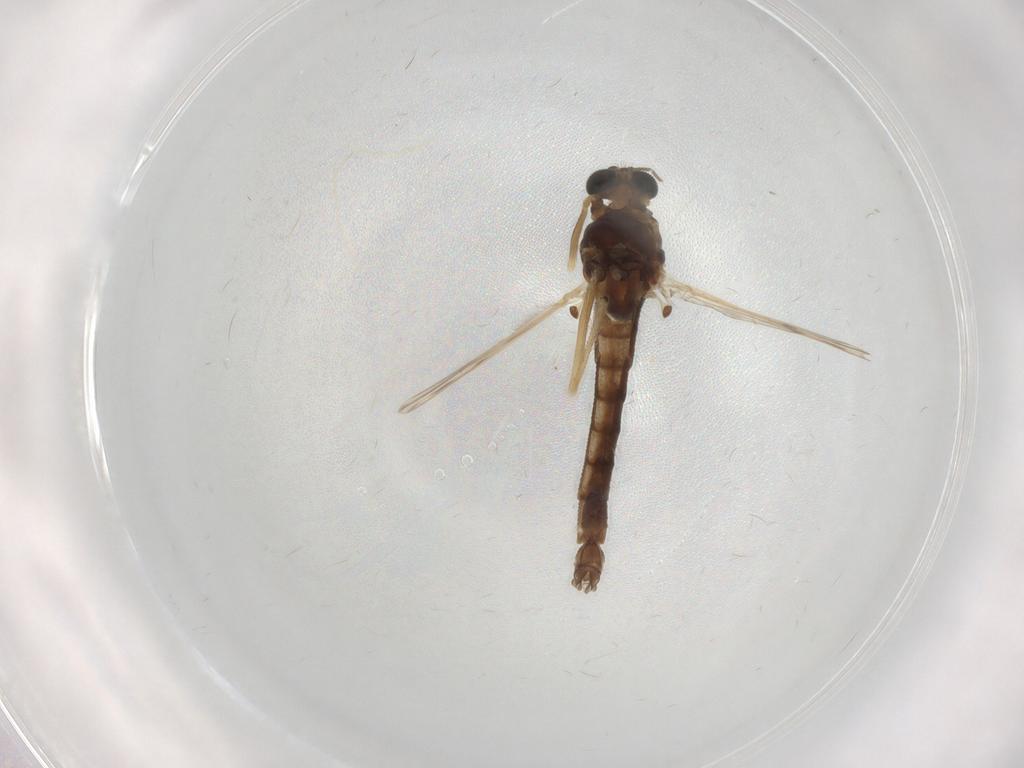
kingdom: Animalia
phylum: Arthropoda
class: Insecta
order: Diptera
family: Chironomidae
